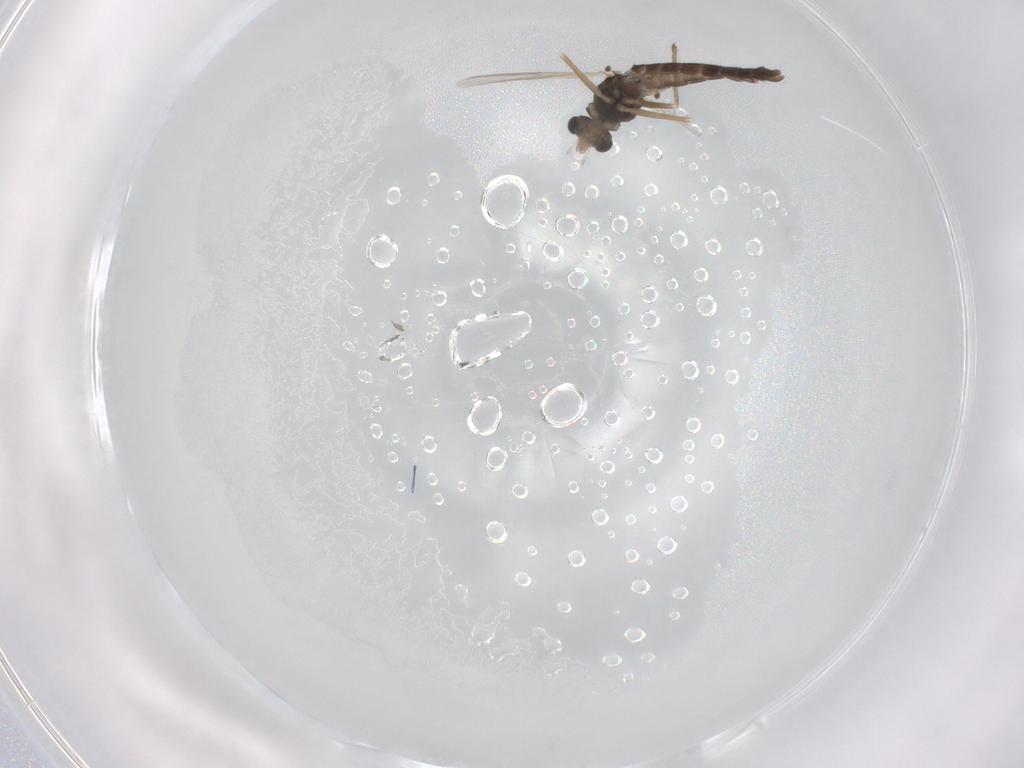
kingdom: Animalia
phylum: Arthropoda
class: Insecta
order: Diptera
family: Chironomidae
